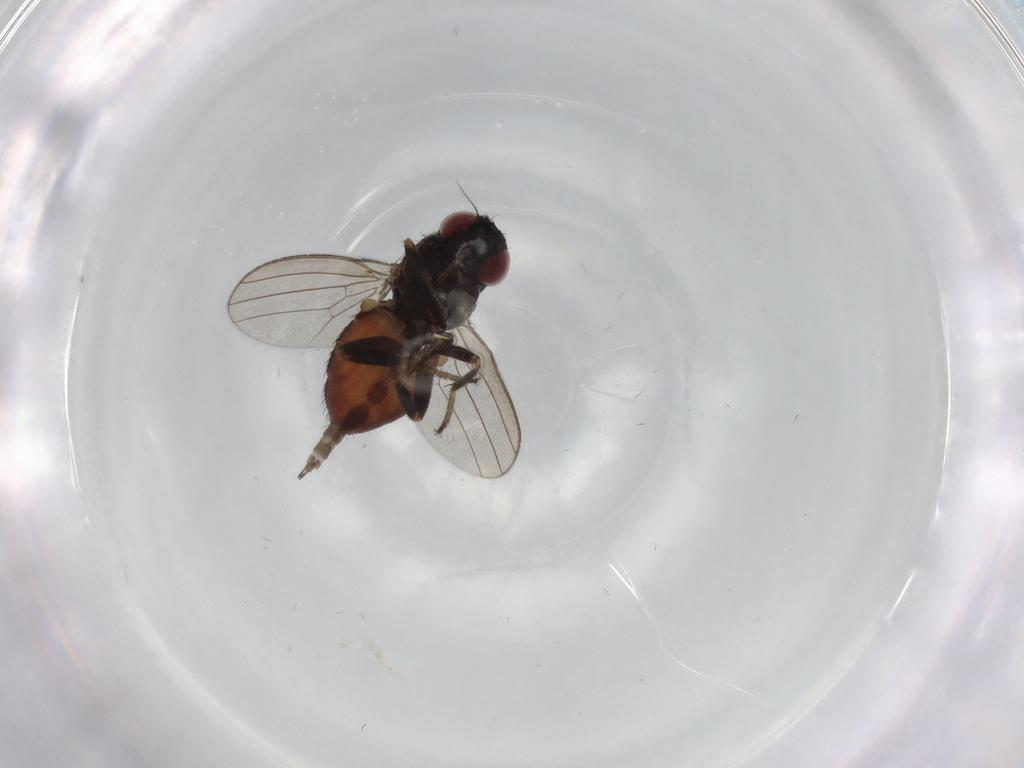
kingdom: Animalia
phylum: Arthropoda
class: Insecta
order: Diptera
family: Milichiidae
